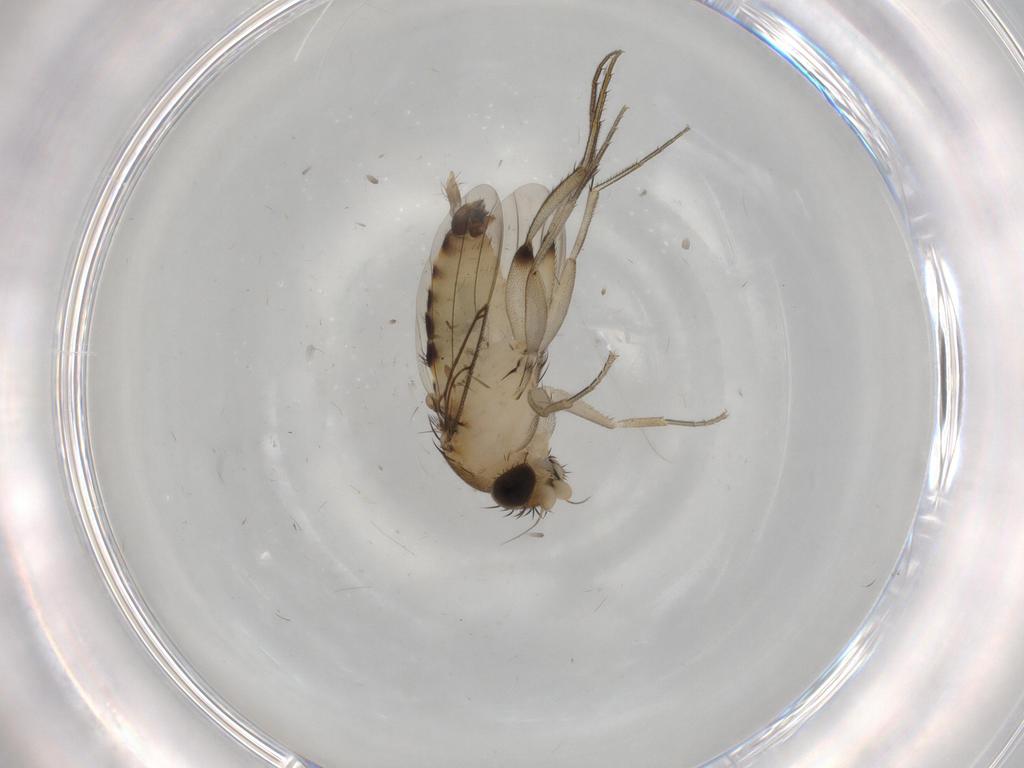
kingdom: Animalia
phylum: Arthropoda
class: Insecta
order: Diptera
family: Phoridae
